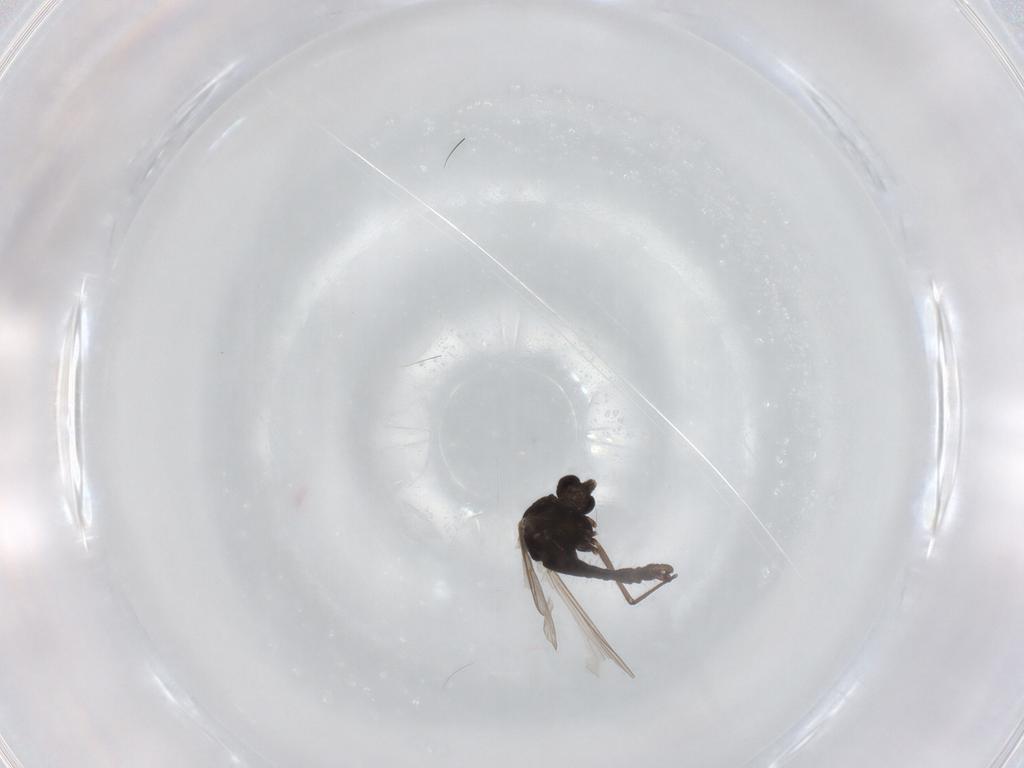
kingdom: Animalia
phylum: Arthropoda
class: Insecta
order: Diptera
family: Chironomidae
